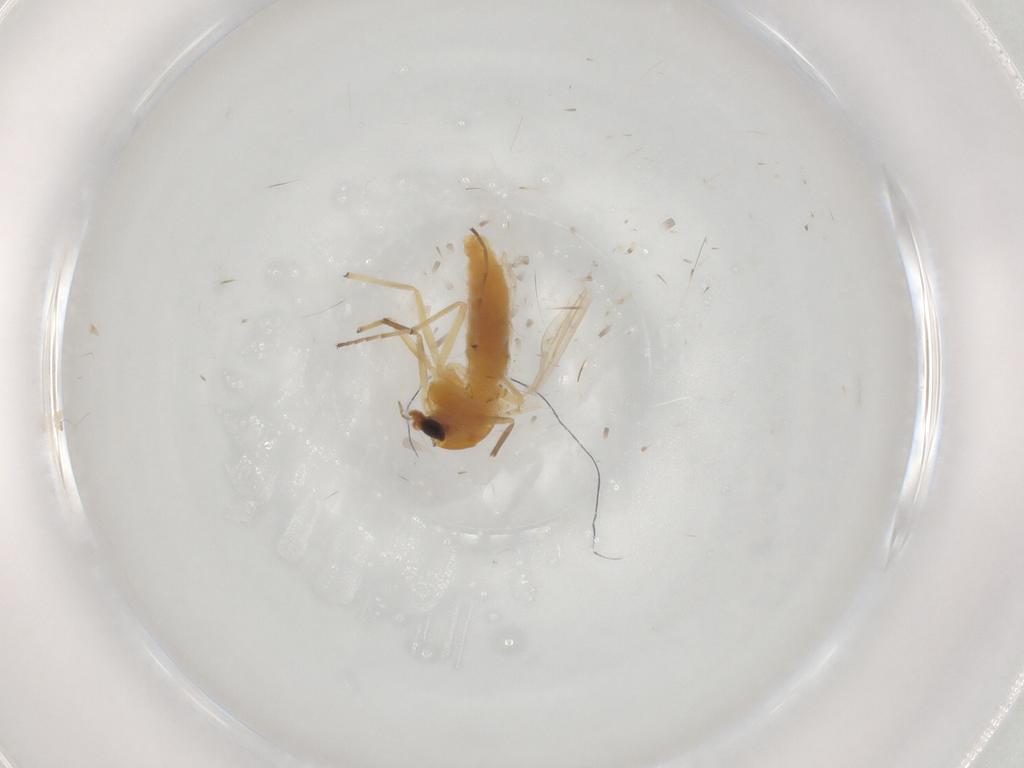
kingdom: Animalia
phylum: Arthropoda
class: Insecta
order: Diptera
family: Chironomidae
